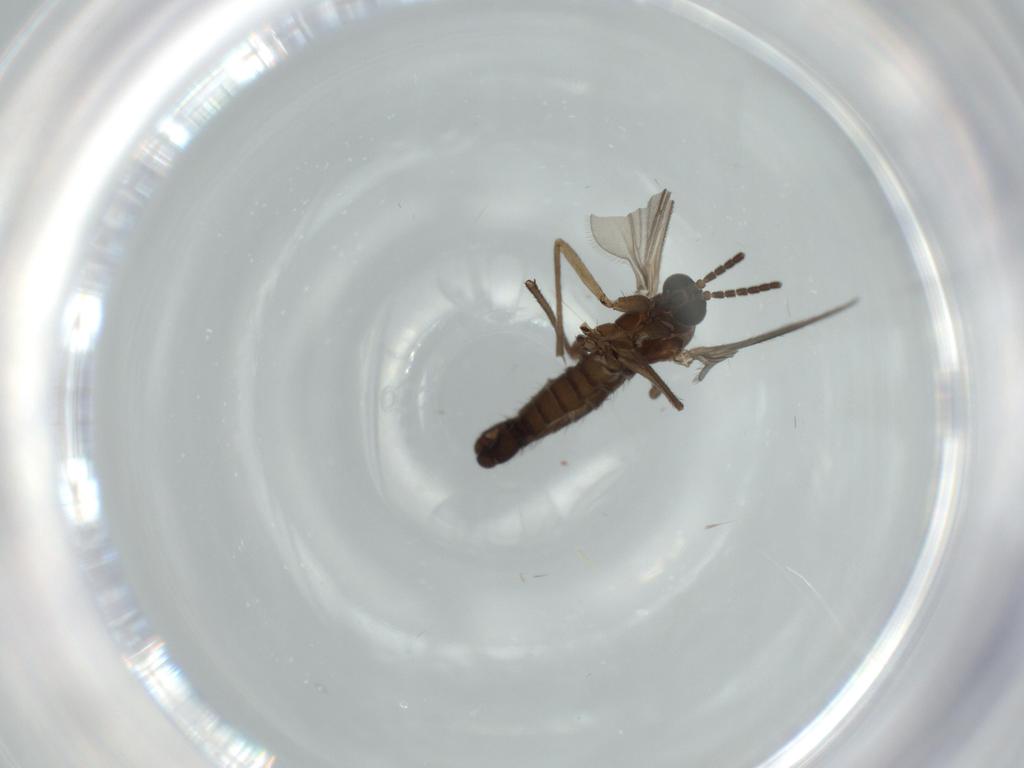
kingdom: Animalia
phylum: Arthropoda
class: Insecta
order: Diptera
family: Sciaridae
